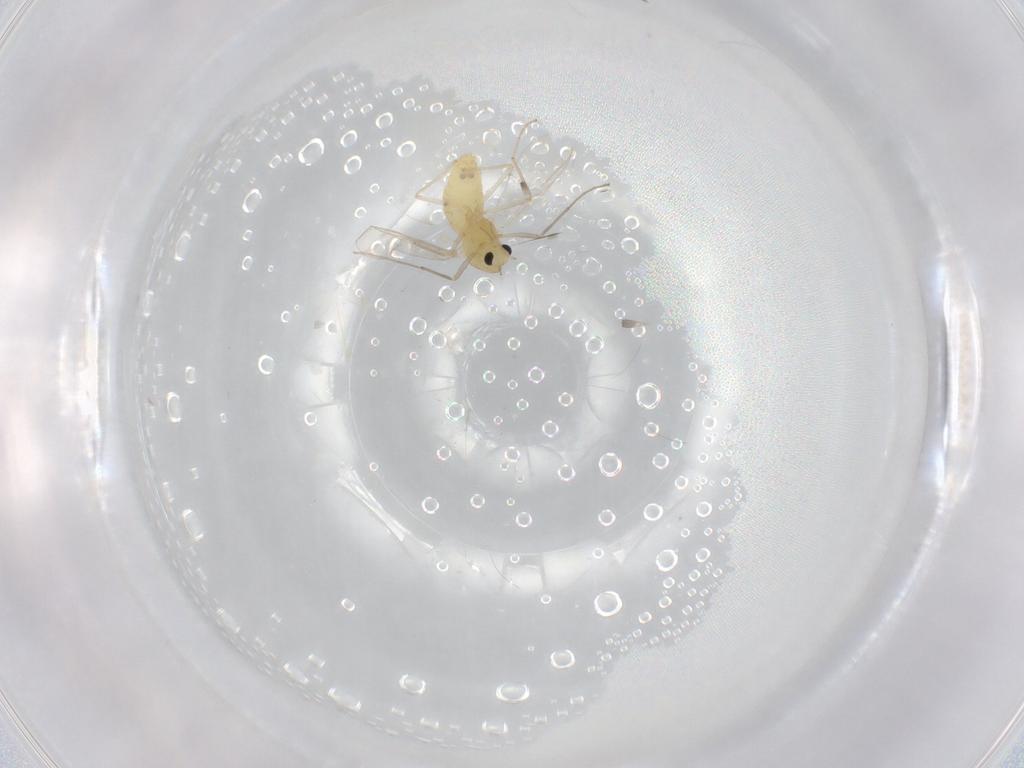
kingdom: Animalia
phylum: Arthropoda
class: Insecta
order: Diptera
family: Chironomidae
